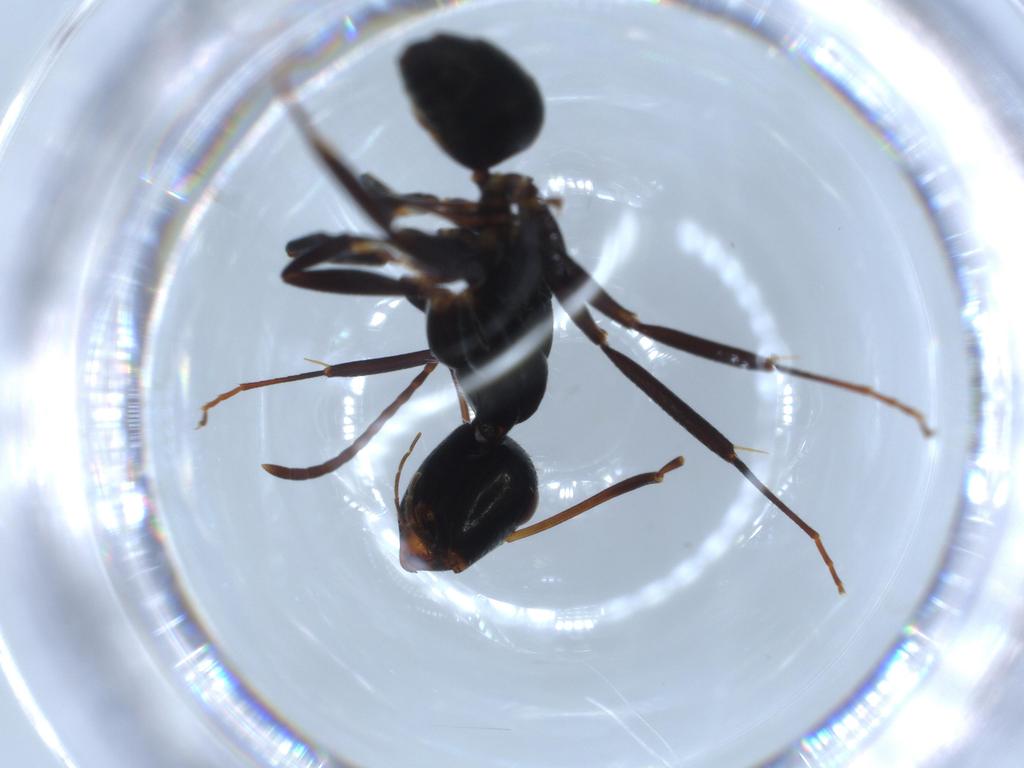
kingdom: Animalia
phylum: Arthropoda
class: Insecta
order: Hymenoptera
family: Formicidae
